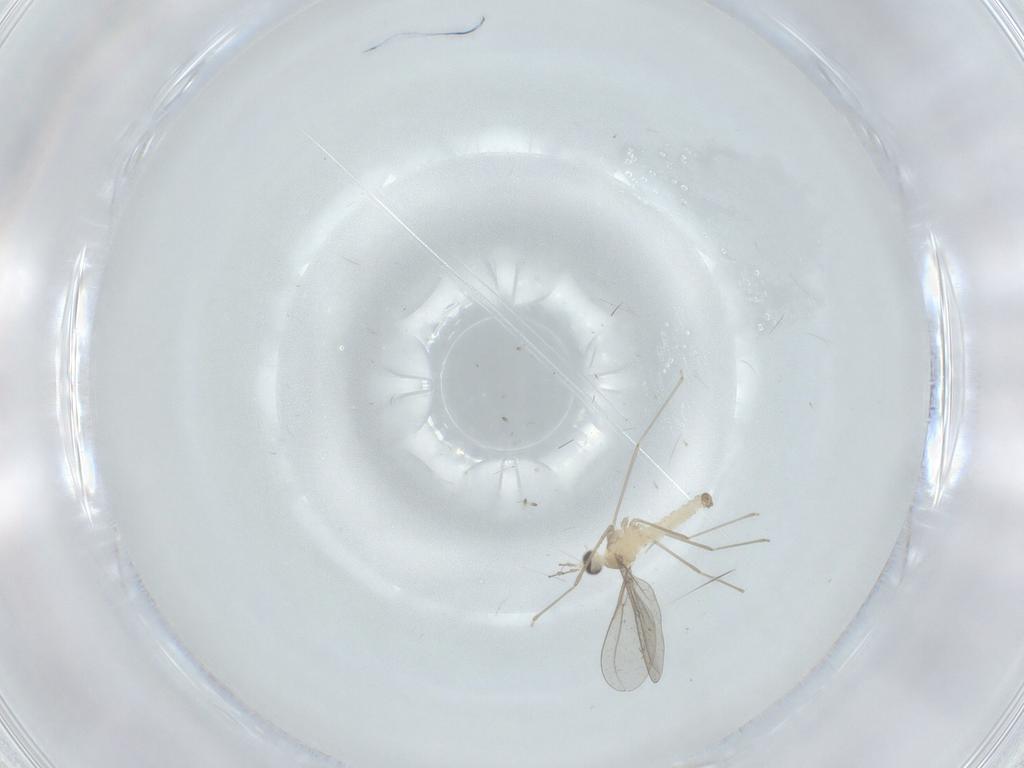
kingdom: Animalia
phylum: Arthropoda
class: Insecta
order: Diptera
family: Cecidomyiidae
